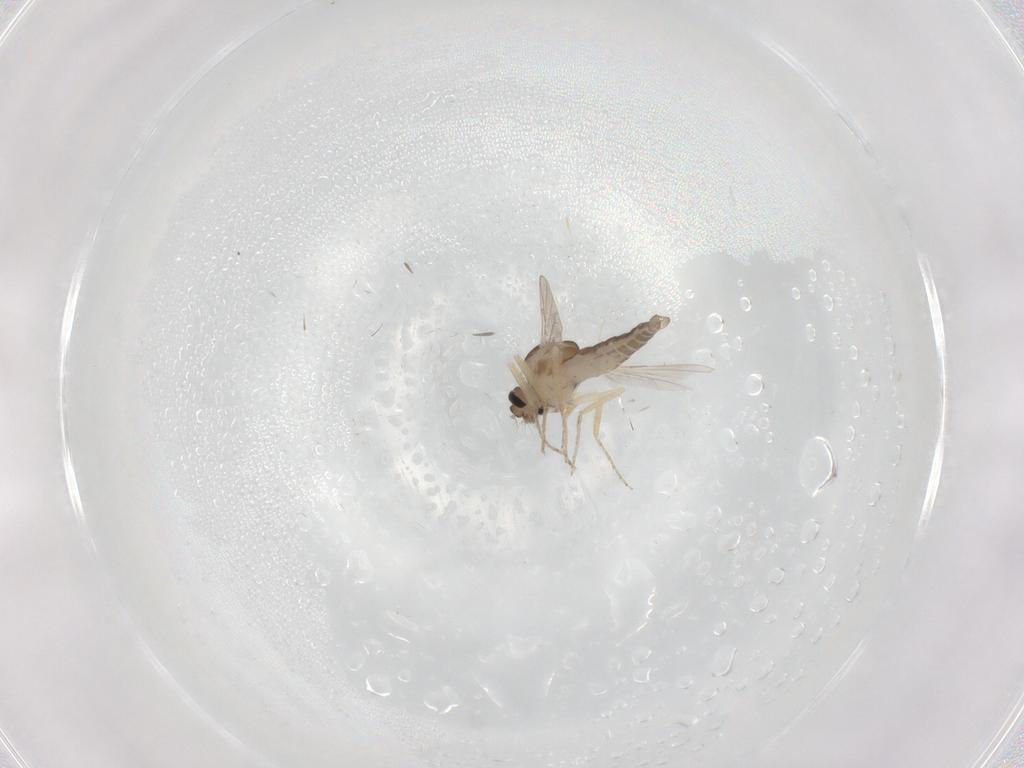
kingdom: Animalia
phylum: Arthropoda
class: Insecta
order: Diptera
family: Ceratopogonidae
